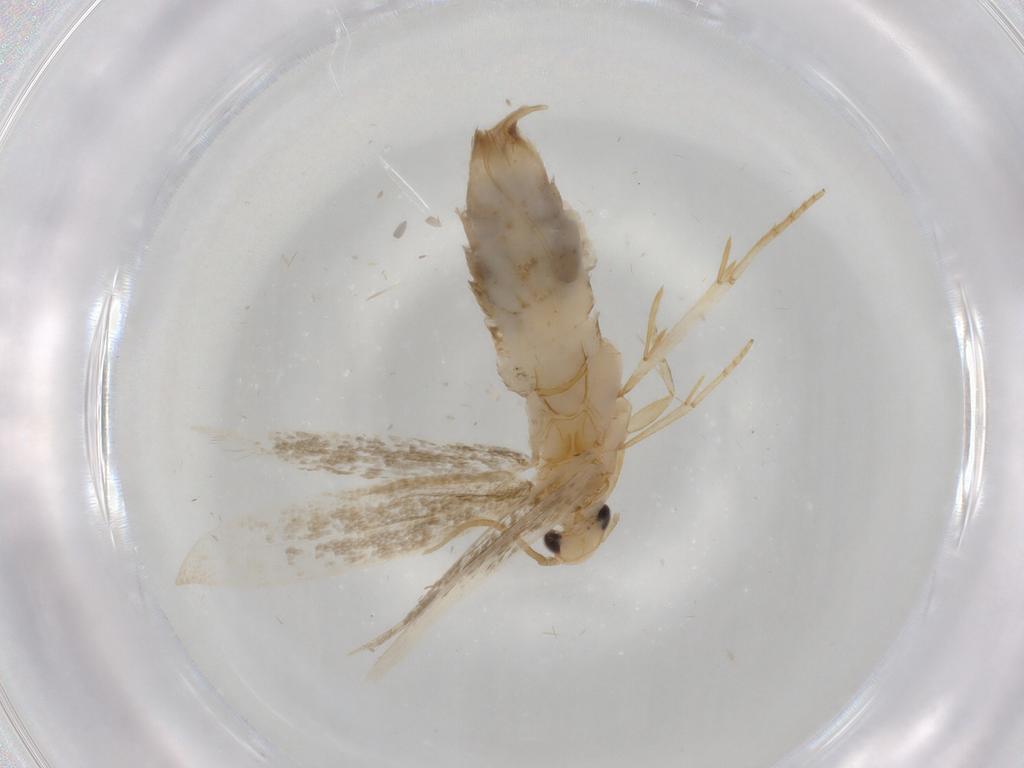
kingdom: Animalia
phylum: Arthropoda
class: Insecta
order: Lepidoptera
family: Tineidae
